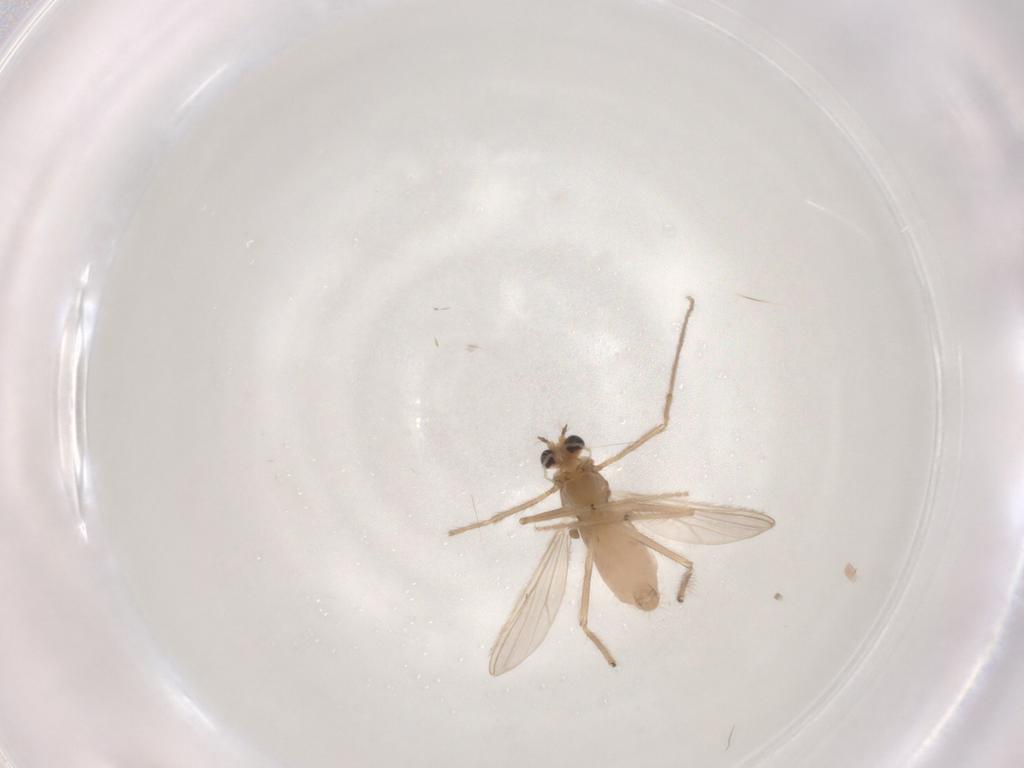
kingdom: Animalia
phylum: Arthropoda
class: Insecta
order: Diptera
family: Chironomidae
